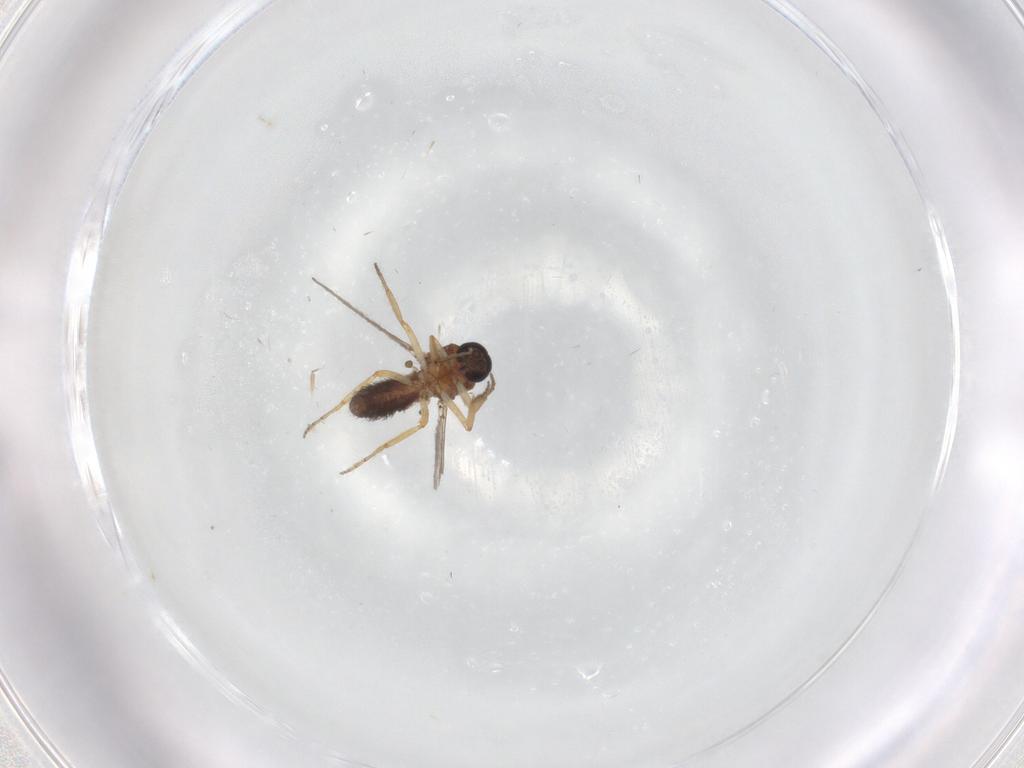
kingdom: Animalia
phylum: Arthropoda
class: Insecta
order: Diptera
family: Ceratopogonidae
